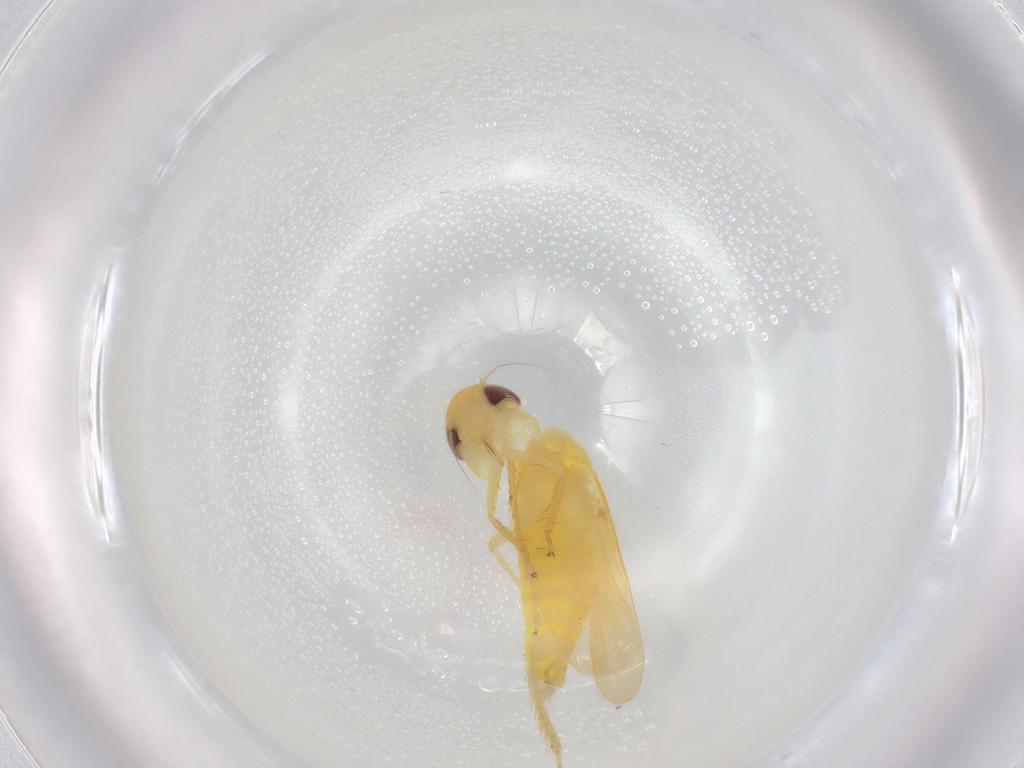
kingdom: Animalia
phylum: Arthropoda
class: Insecta
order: Hemiptera
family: Cicadellidae
